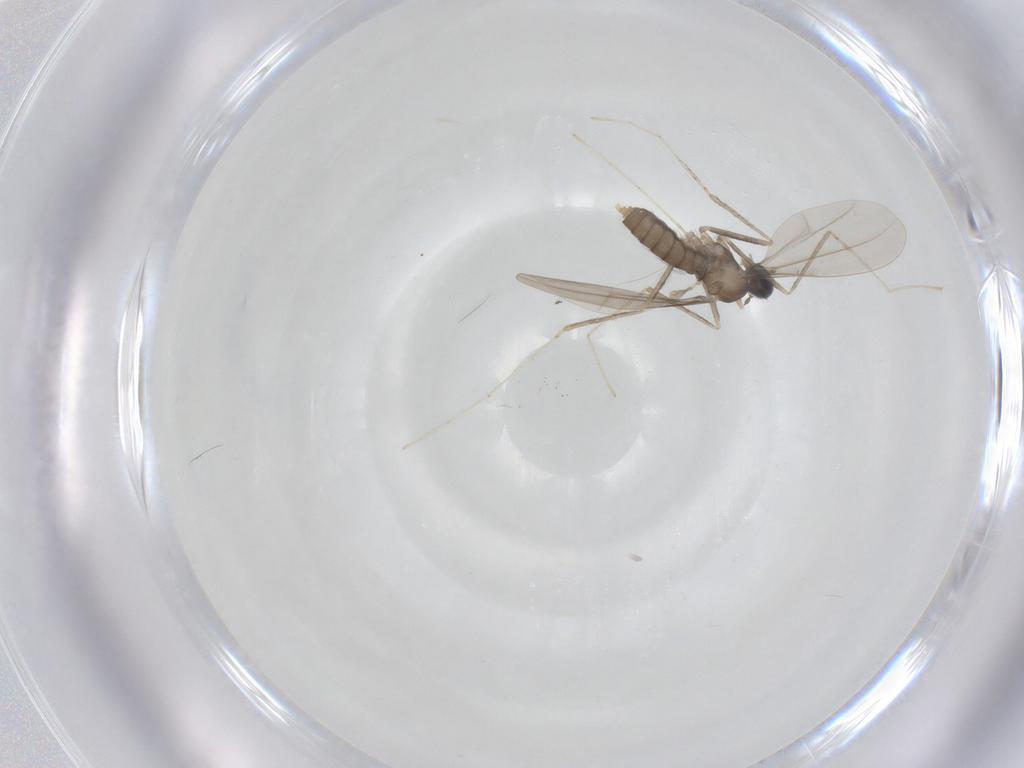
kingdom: Animalia
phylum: Arthropoda
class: Insecta
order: Diptera
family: Cecidomyiidae
